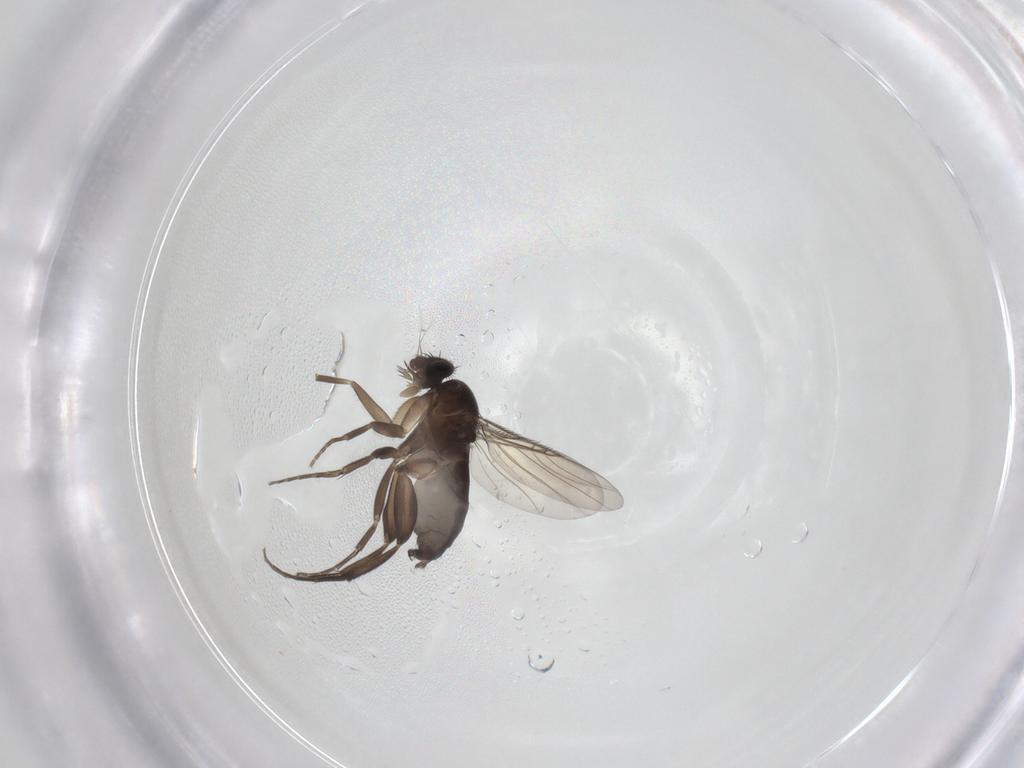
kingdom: Animalia
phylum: Arthropoda
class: Insecta
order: Diptera
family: Phoridae
